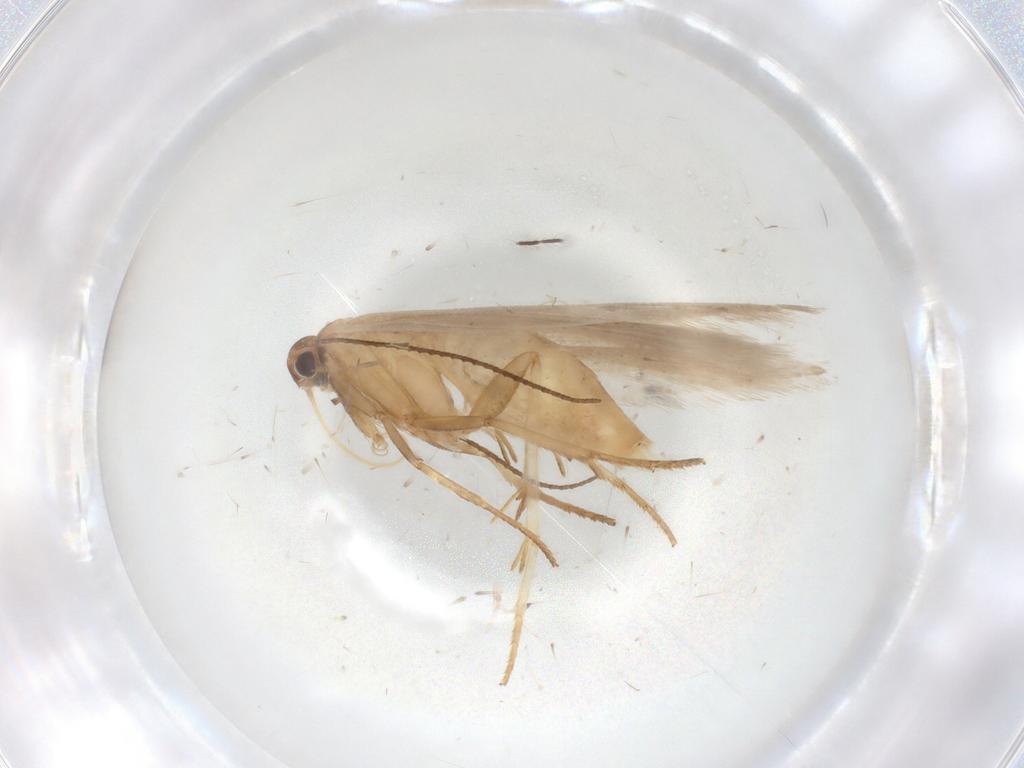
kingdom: Animalia
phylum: Arthropoda
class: Insecta
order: Lepidoptera
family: Gelechiidae
